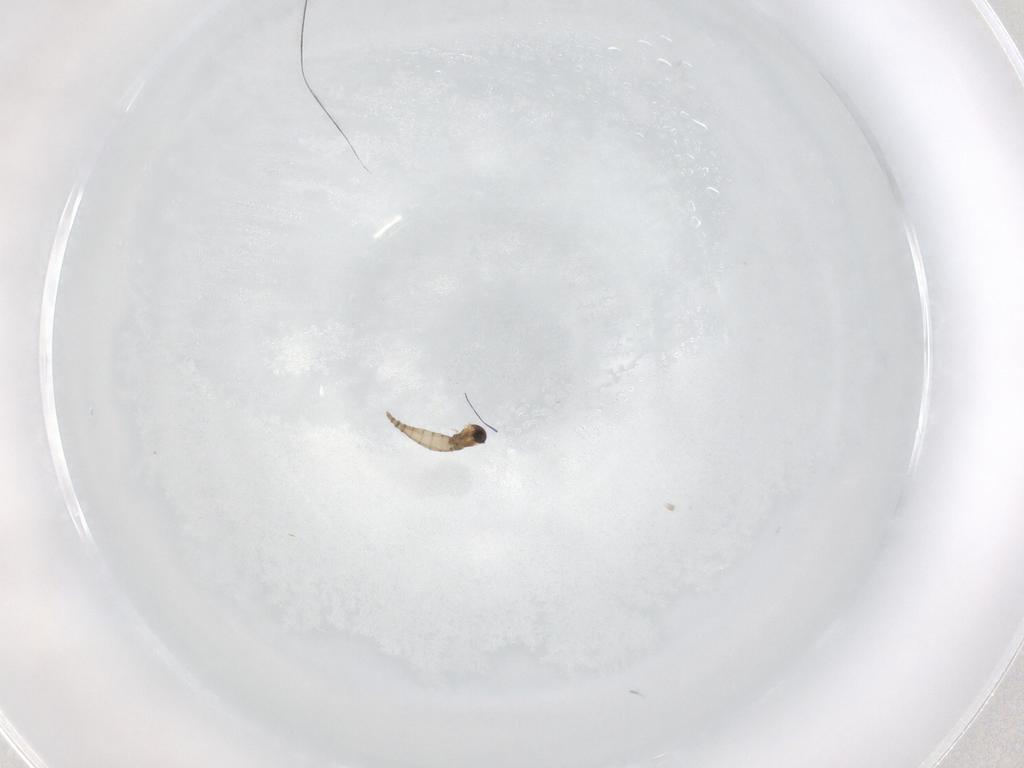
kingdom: Animalia
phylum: Arthropoda
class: Insecta
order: Diptera
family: Cecidomyiidae
